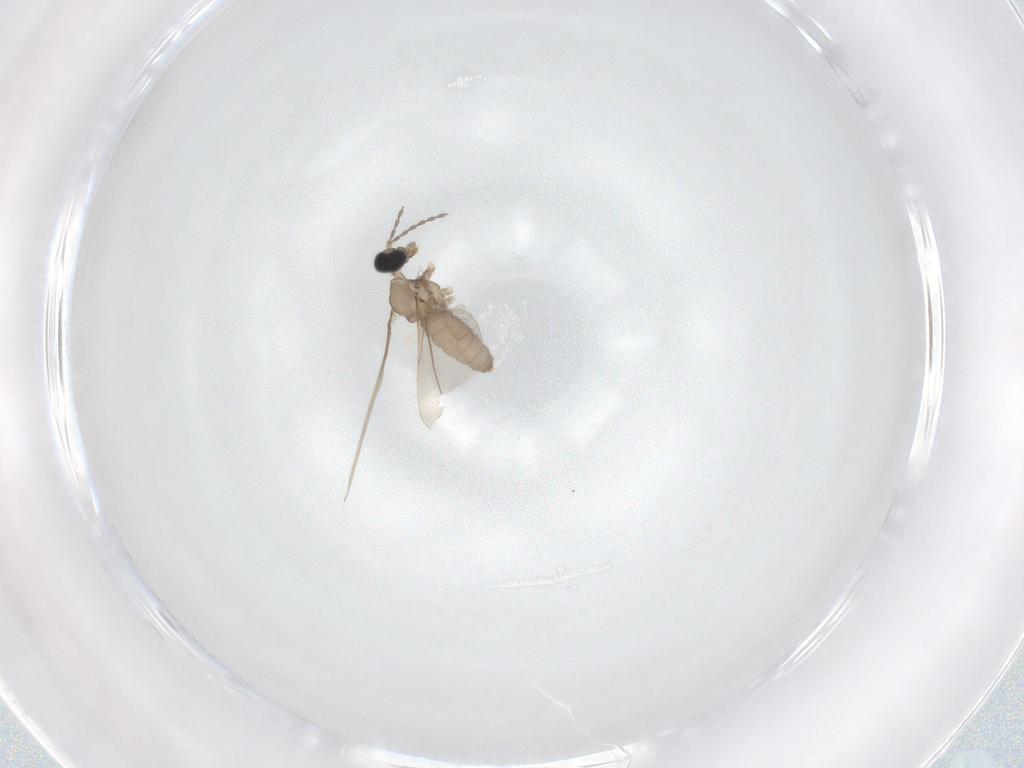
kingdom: Animalia
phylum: Arthropoda
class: Insecta
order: Diptera
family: Cecidomyiidae
